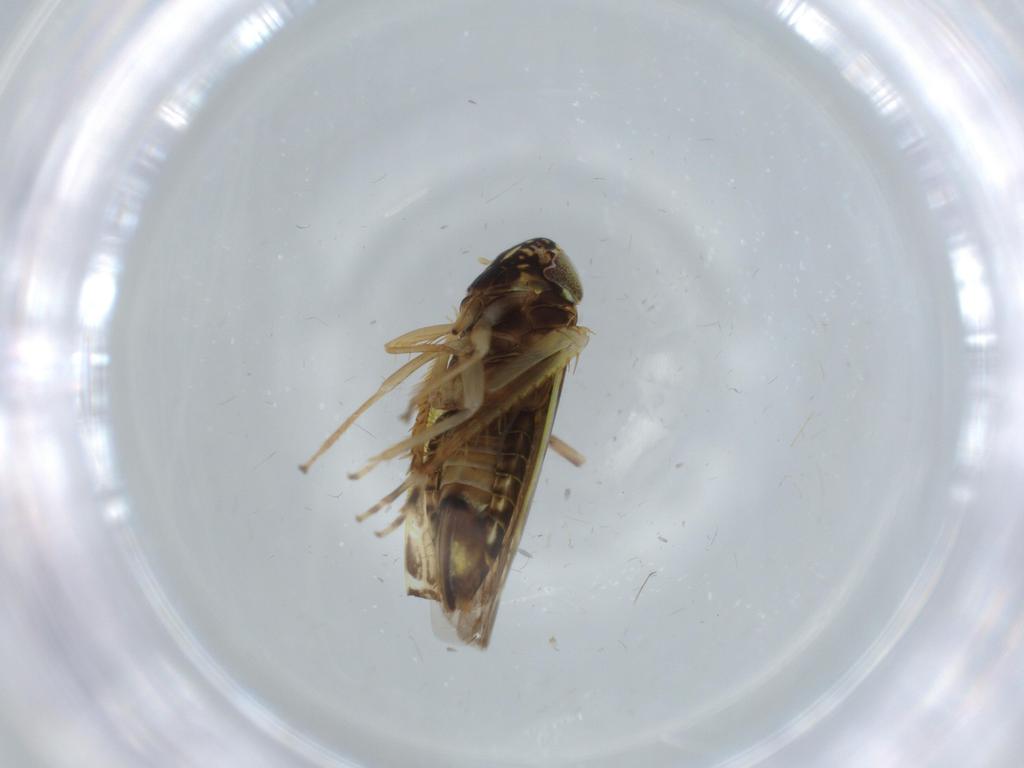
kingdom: Animalia
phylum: Arthropoda
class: Insecta
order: Hemiptera
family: Cicadellidae
